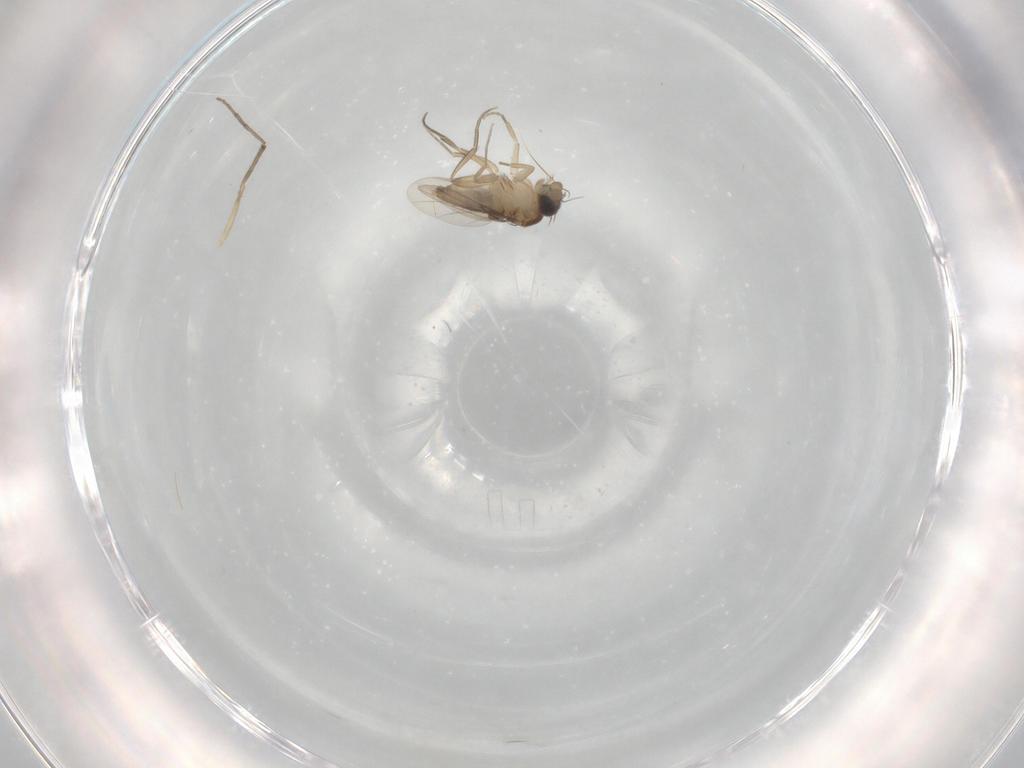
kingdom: Animalia
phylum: Arthropoda
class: Insecta
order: Diptera
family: Phoridae
